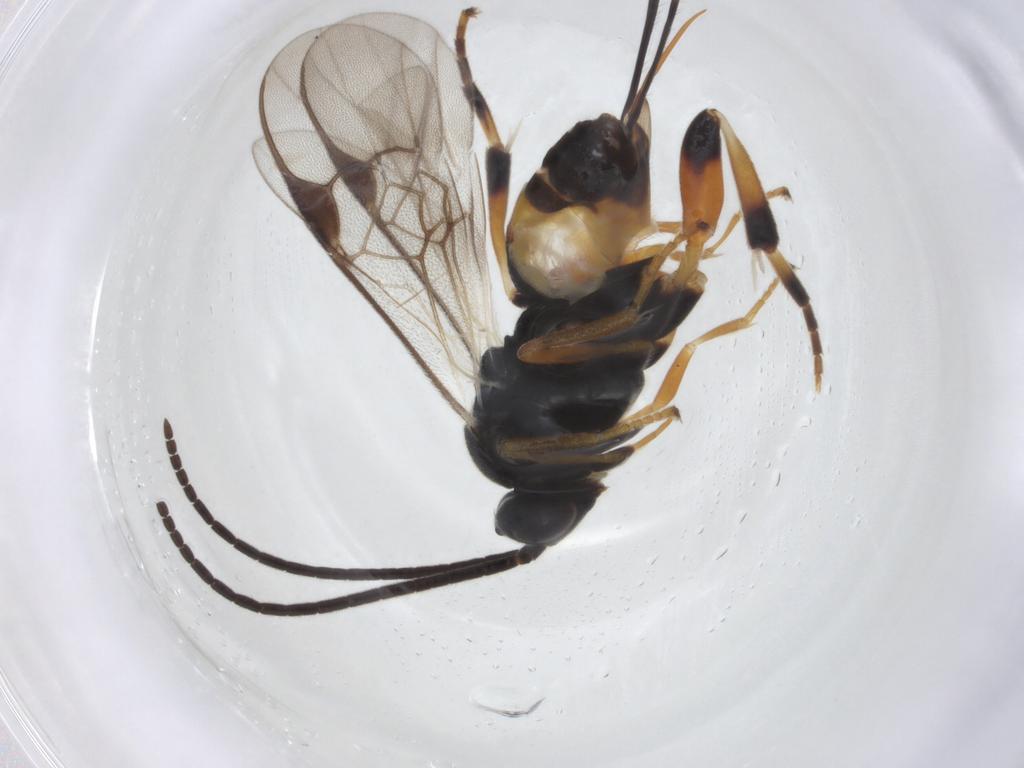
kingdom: Animalia
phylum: Arthropoda
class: Insecta
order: Hymenoptera
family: Braconidae
